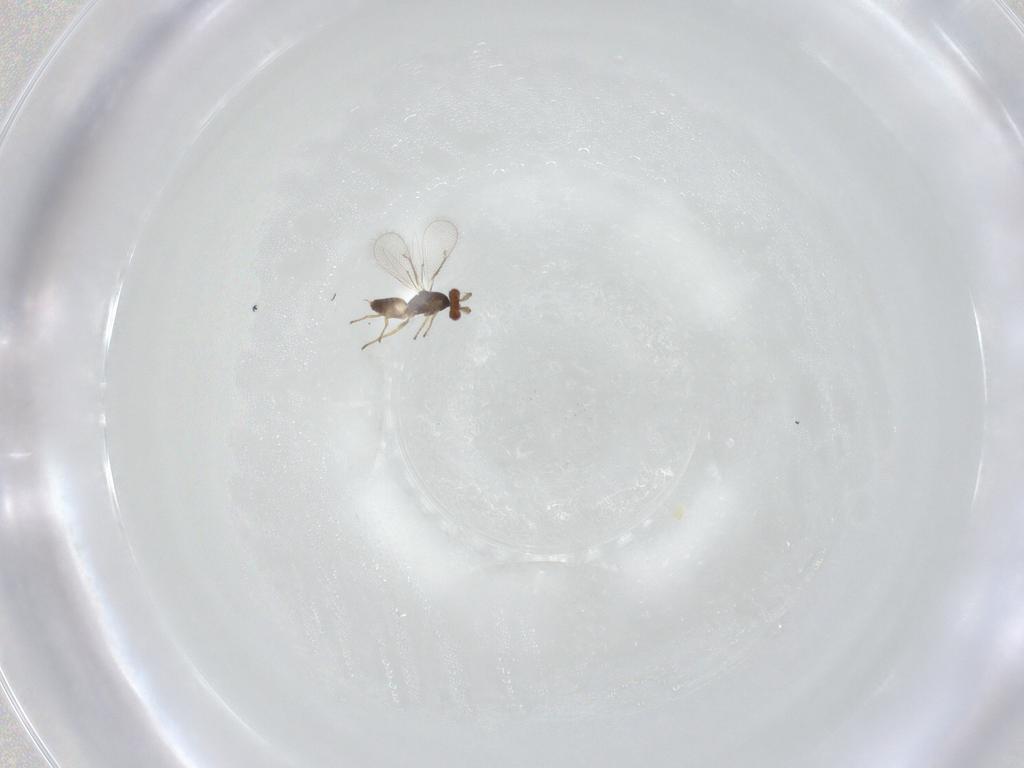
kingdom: Animalia
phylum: Arthropoda
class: Insecta
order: Hymenoptera
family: Eulophidae
